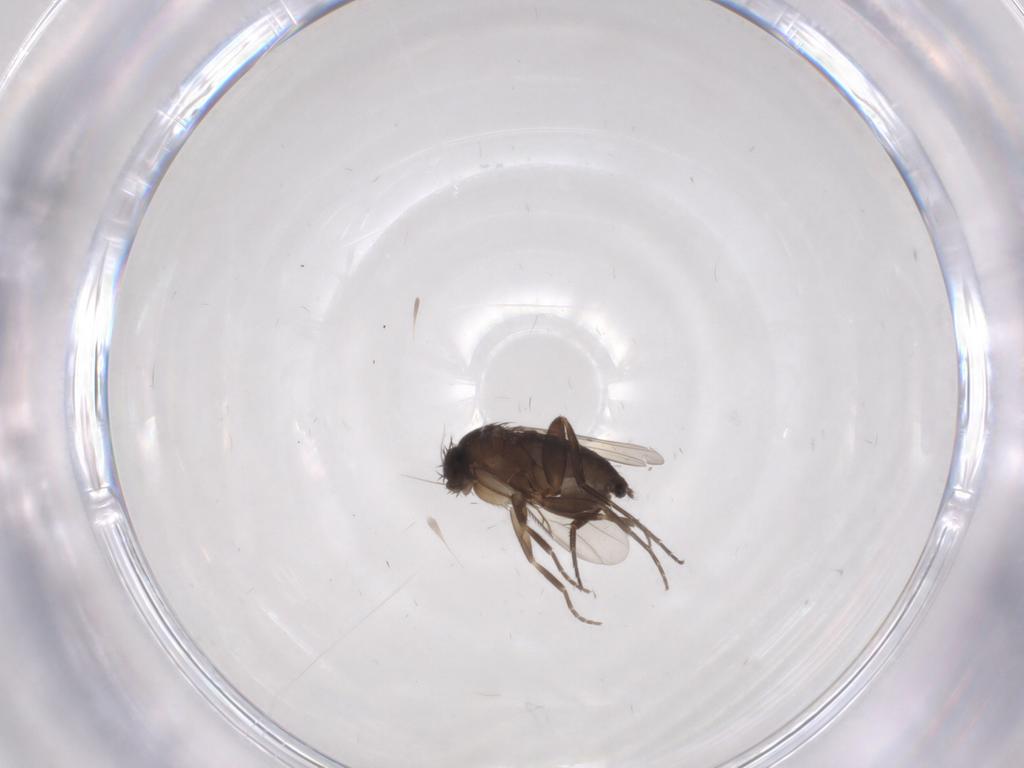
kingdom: Animalia
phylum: Arthropoda
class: Insecta
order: Diptera
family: Phoridae
